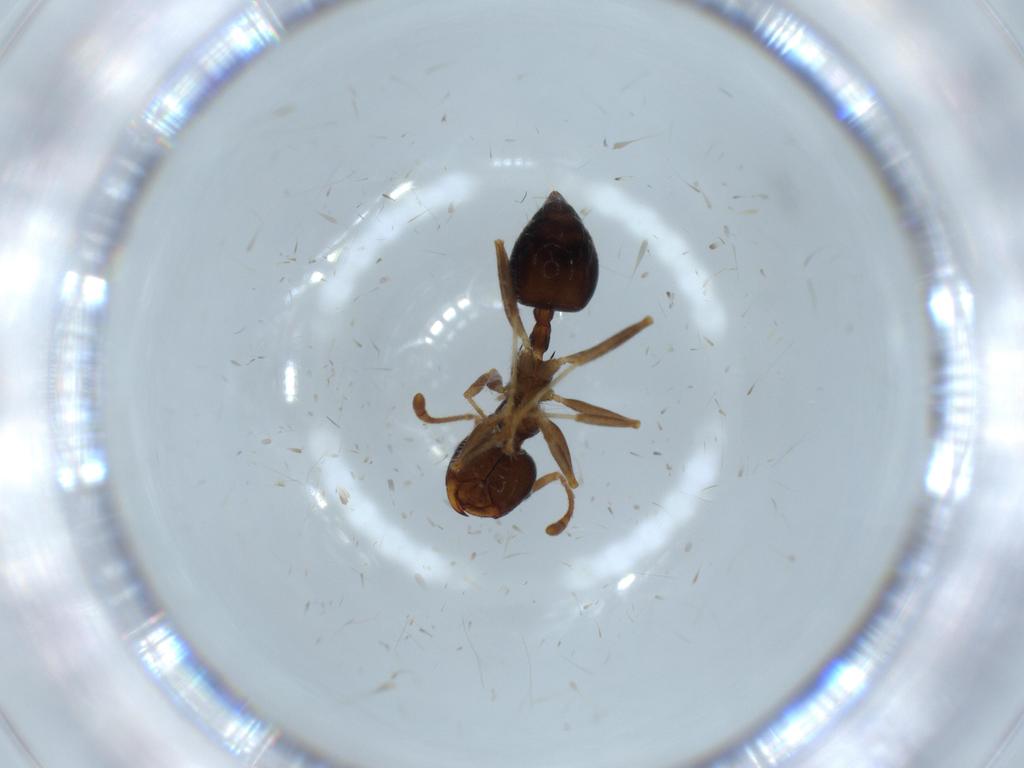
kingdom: Animalia
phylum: Arthropoda
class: Insecta
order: Hymenoptera
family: Formicidae
